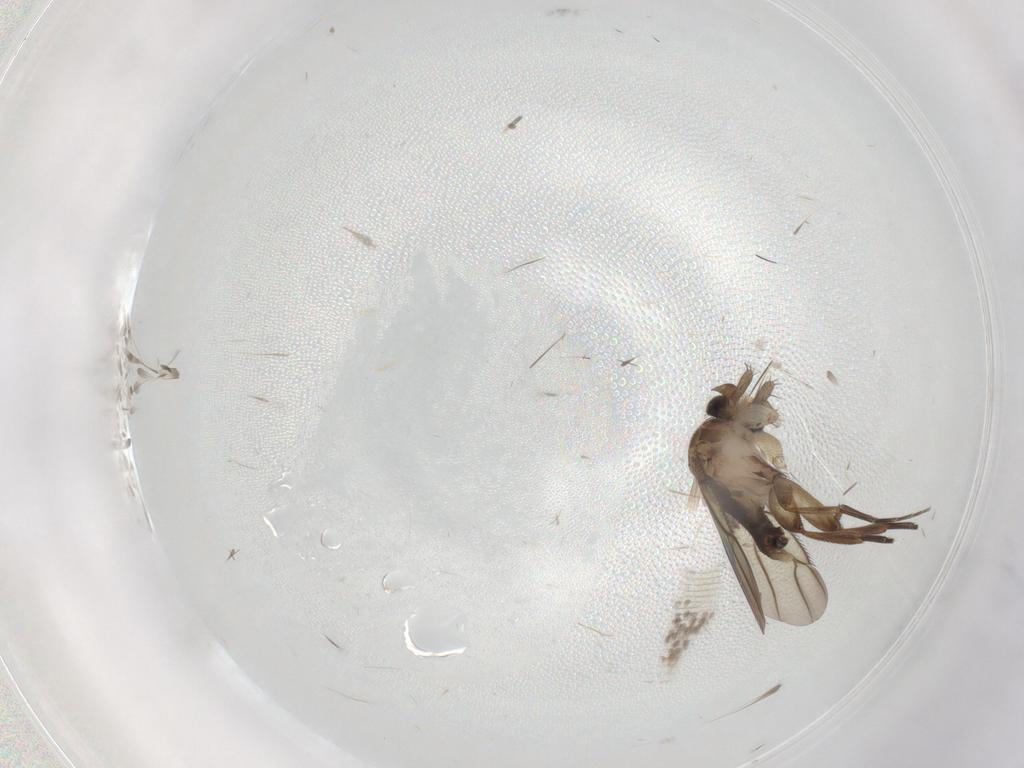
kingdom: Animalia
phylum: Arthropoda
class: Insecta
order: Diptera
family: Phoridae
